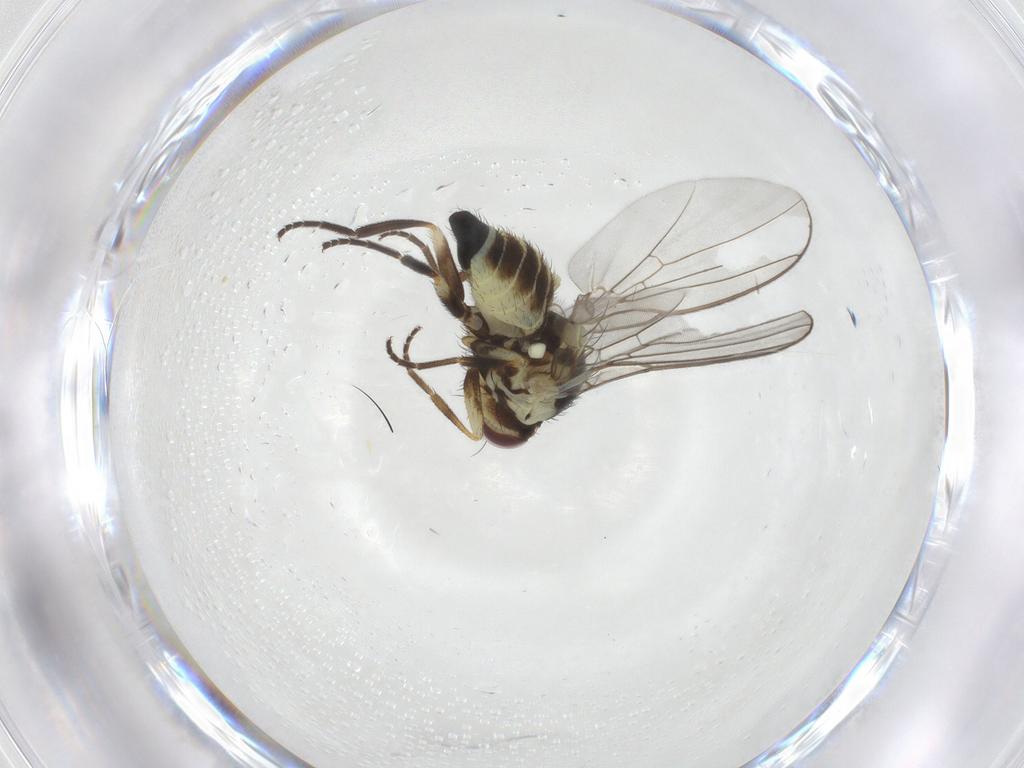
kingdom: Animalia
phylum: Arthropoda
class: Insecta
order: Diptera
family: Agromyzidae
